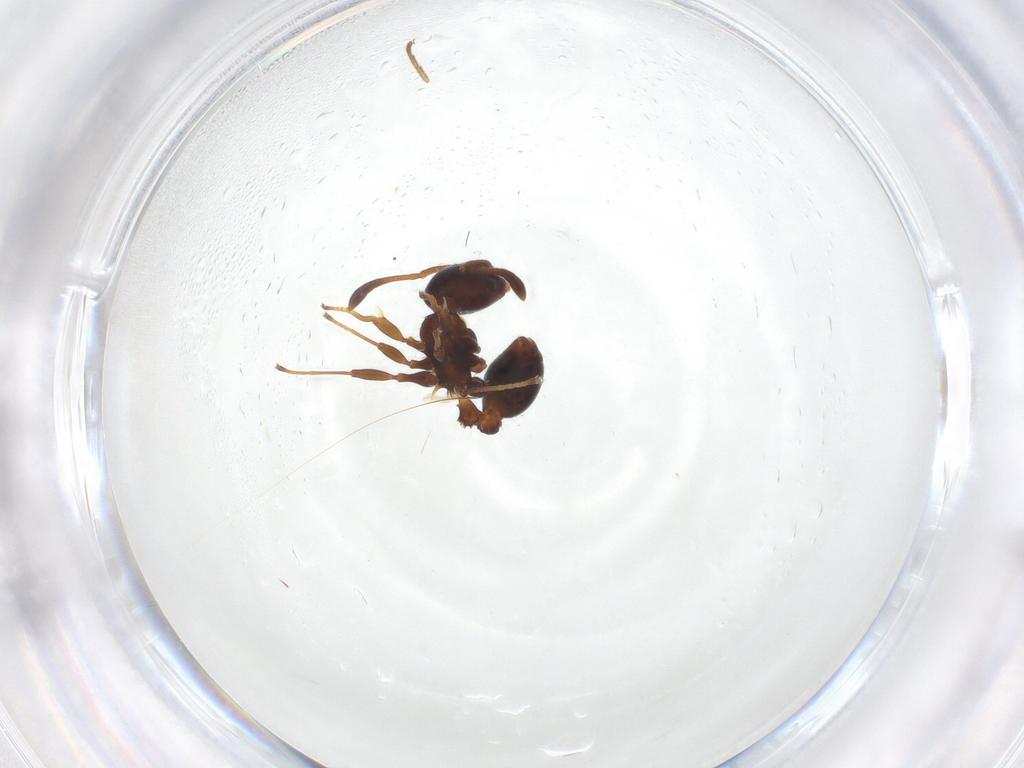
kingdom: Animalia
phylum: Arthropoda
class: Insecta
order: Hymenoptera
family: Formicidae
